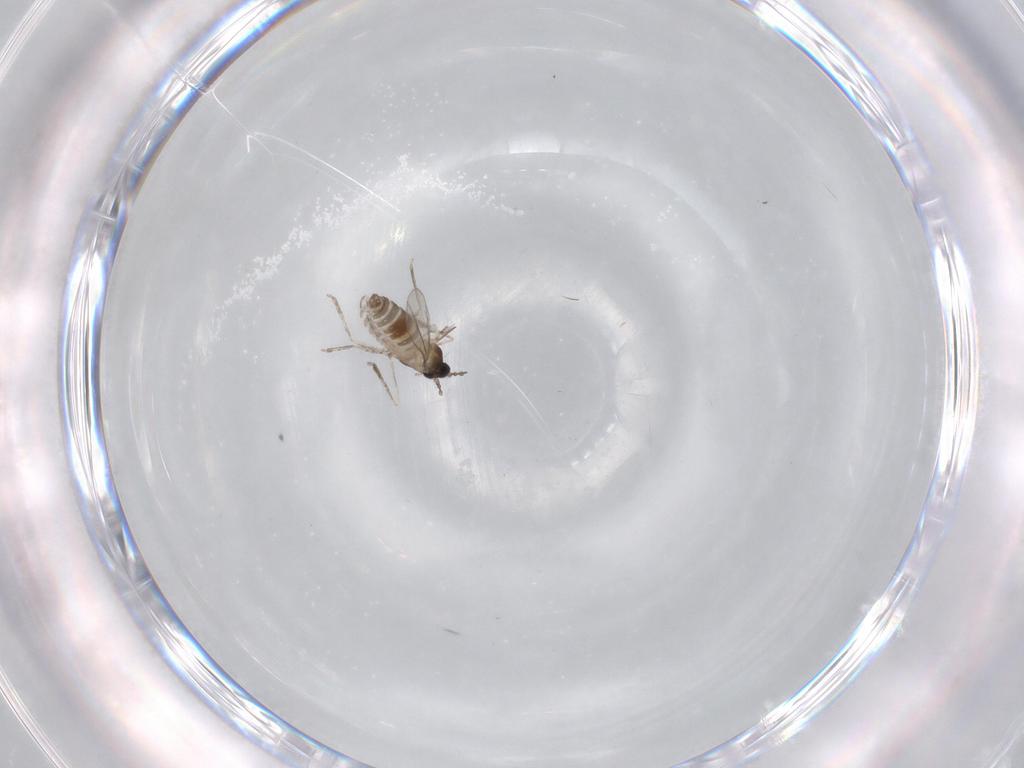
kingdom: Animalia
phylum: Arthropoda
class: Insecta
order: Diptera
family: Cecidomyiidae
